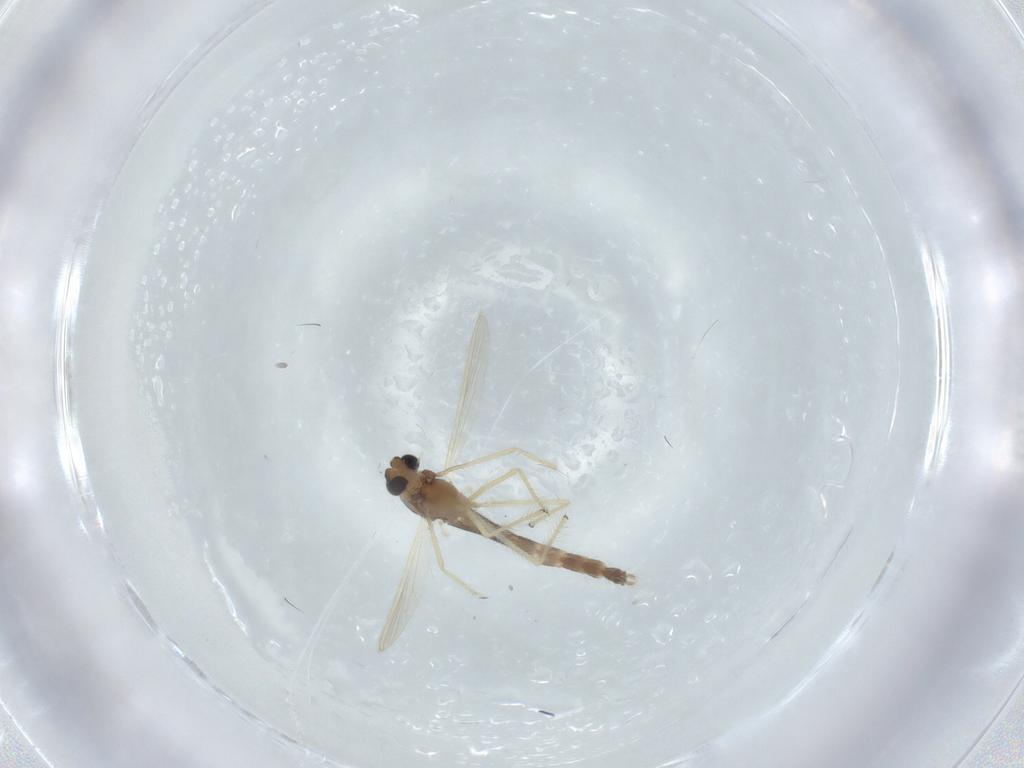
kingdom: Animalia
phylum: Arthropoda
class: Insecta
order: Diptera
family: Chironomidae
